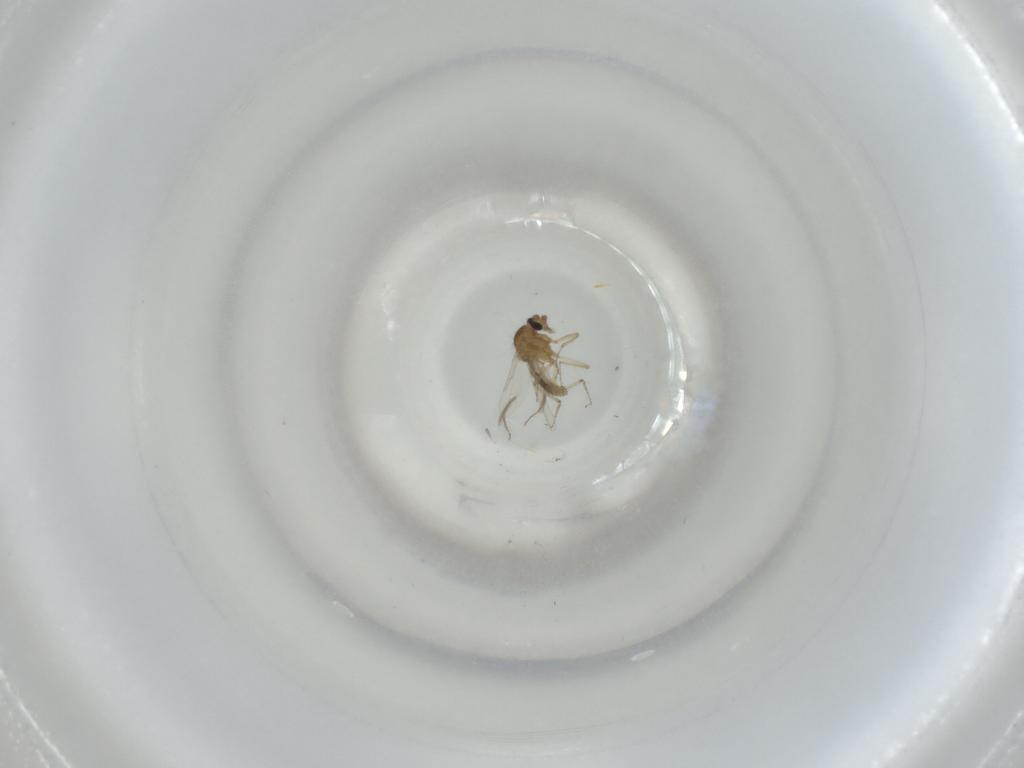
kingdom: Animalia
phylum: Arthropoda
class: Insecta
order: Diptera
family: Ceratopogonidae
